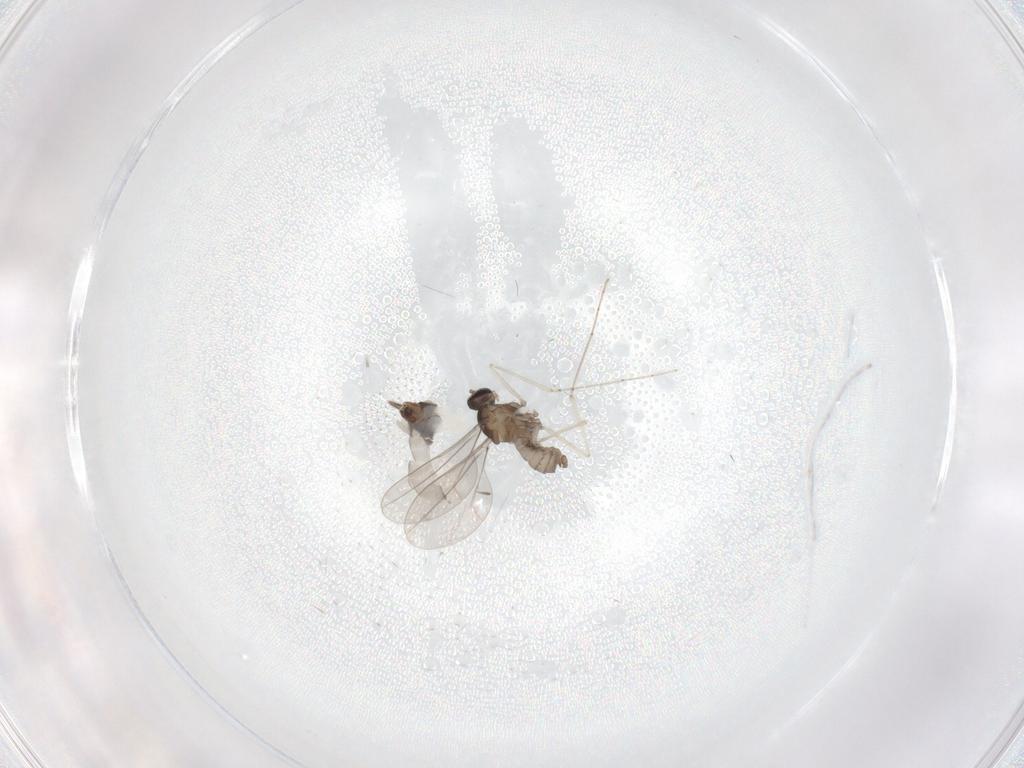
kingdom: Animalia
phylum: Arthropoda
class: Insecta
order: Diptera
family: Cecidomyiidae
